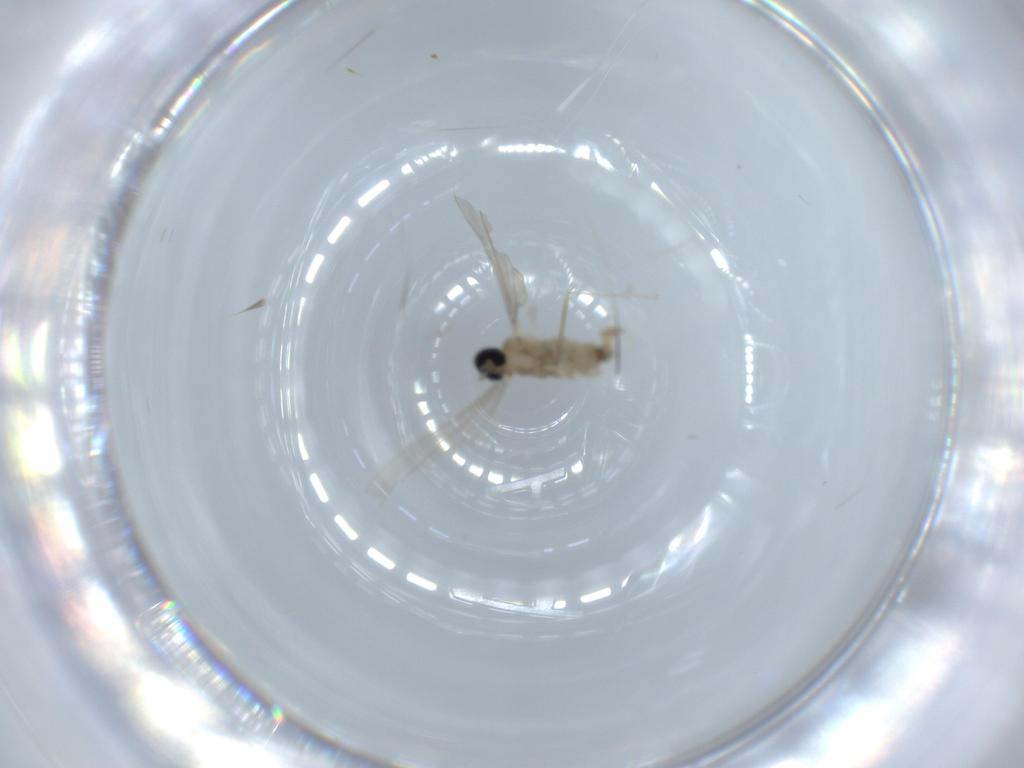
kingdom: Animalia
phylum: Arthropoda
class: Insecta
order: Diptera
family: Cecidomyiidae
